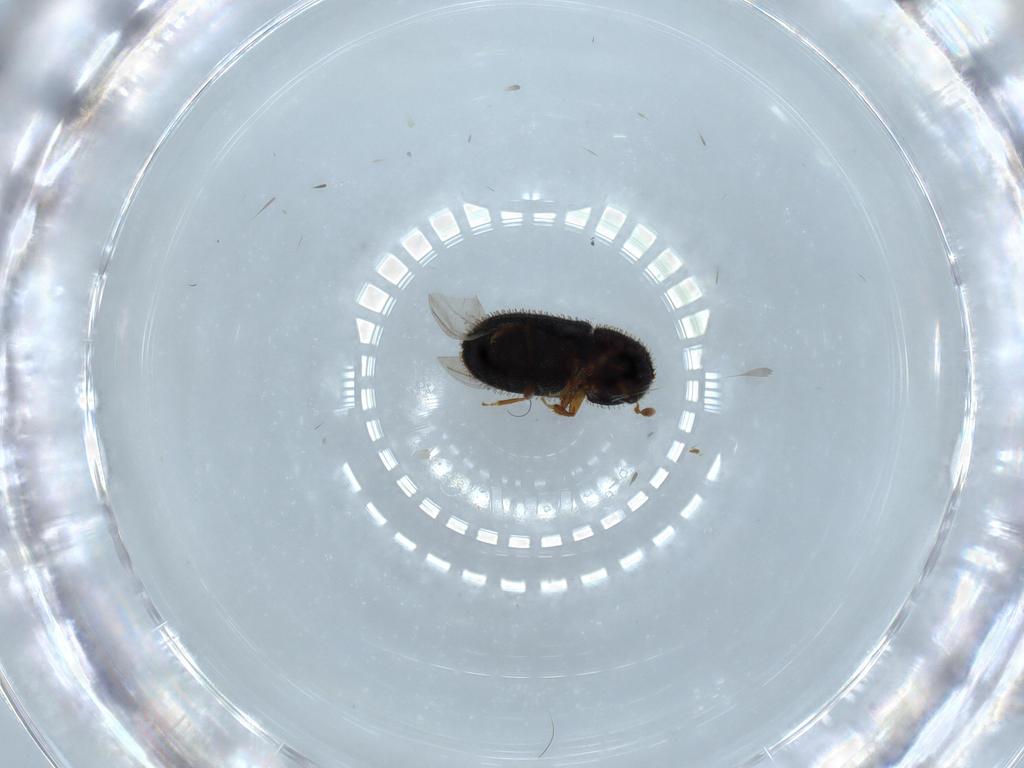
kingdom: Animalia
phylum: Arthropoda
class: Insecta
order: Coleoptera
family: Curculionidae
